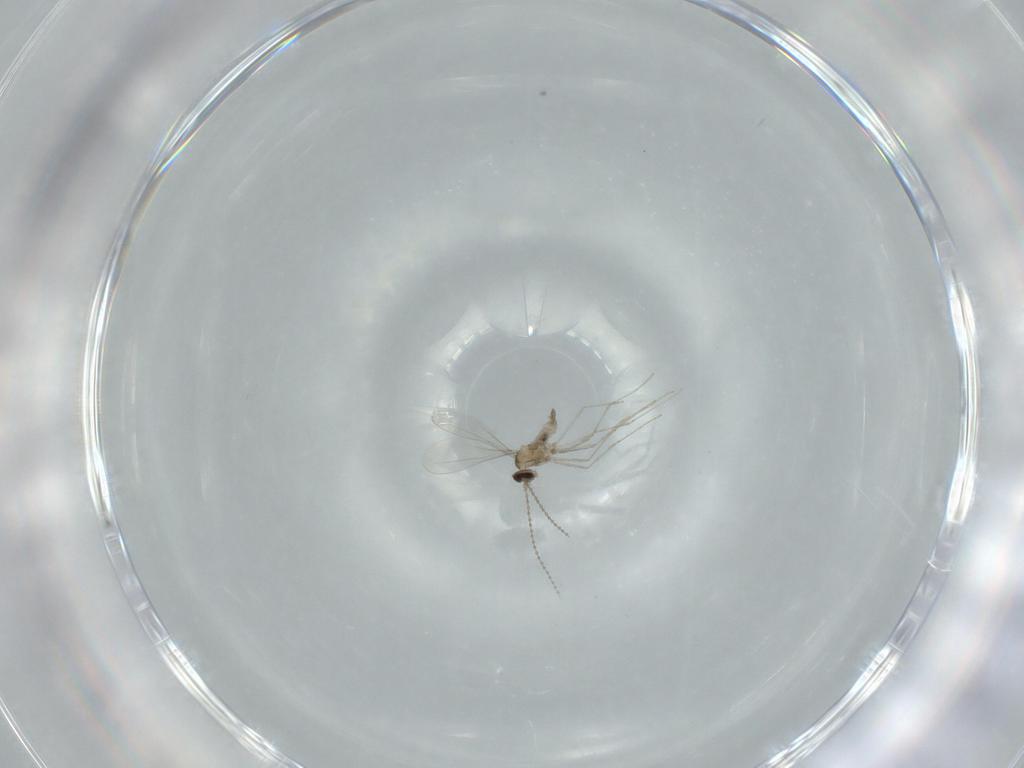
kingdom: Animalia
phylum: Arthropoda
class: Insecta
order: Diptera
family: Cecidomyiidae
